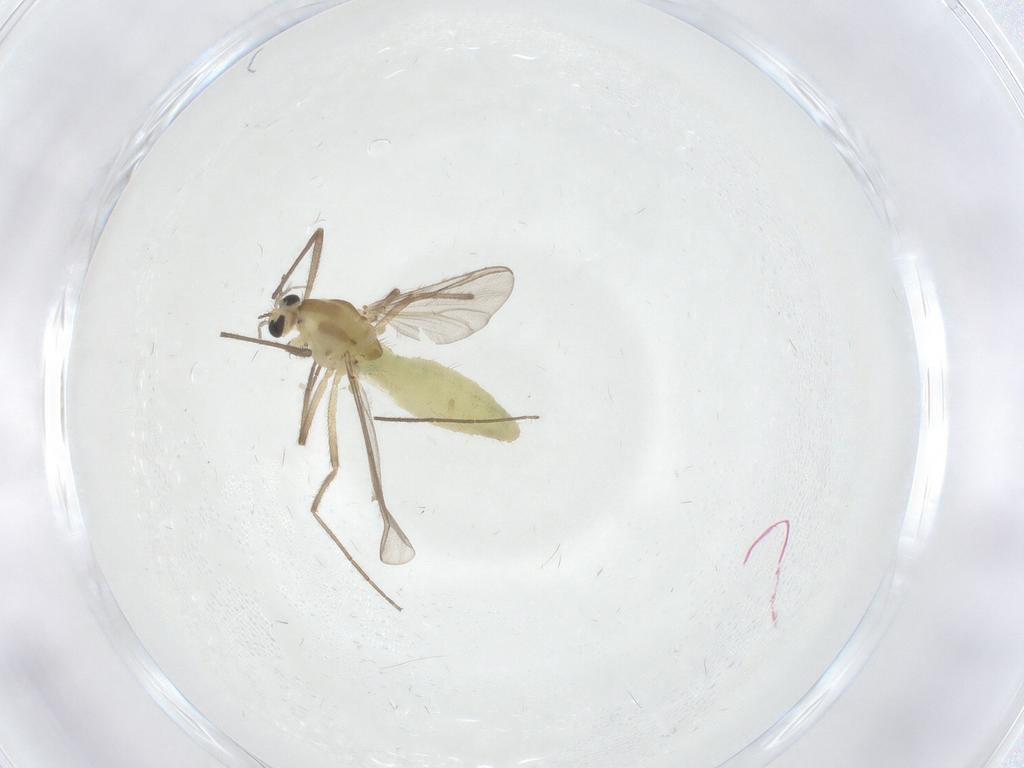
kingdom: Animalia
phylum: Arthropoda
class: Insecta
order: Diptera
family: Chironomidae
